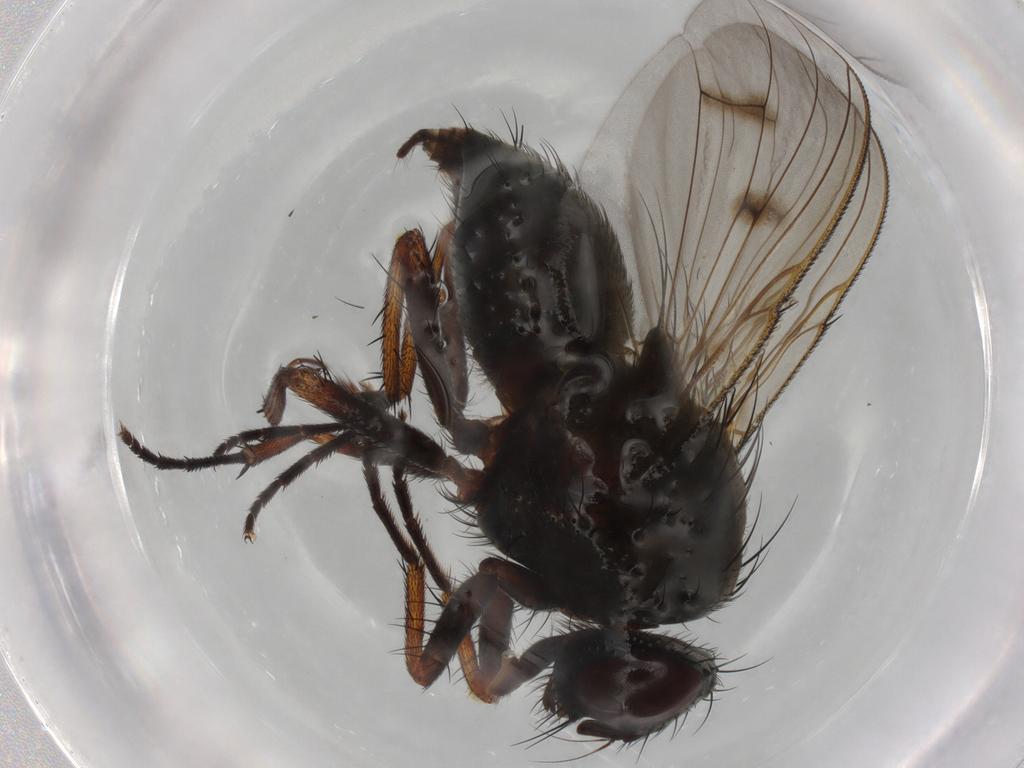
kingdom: Animalia
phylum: Arthropoda
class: Insecta
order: Diptera
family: Muscidae
